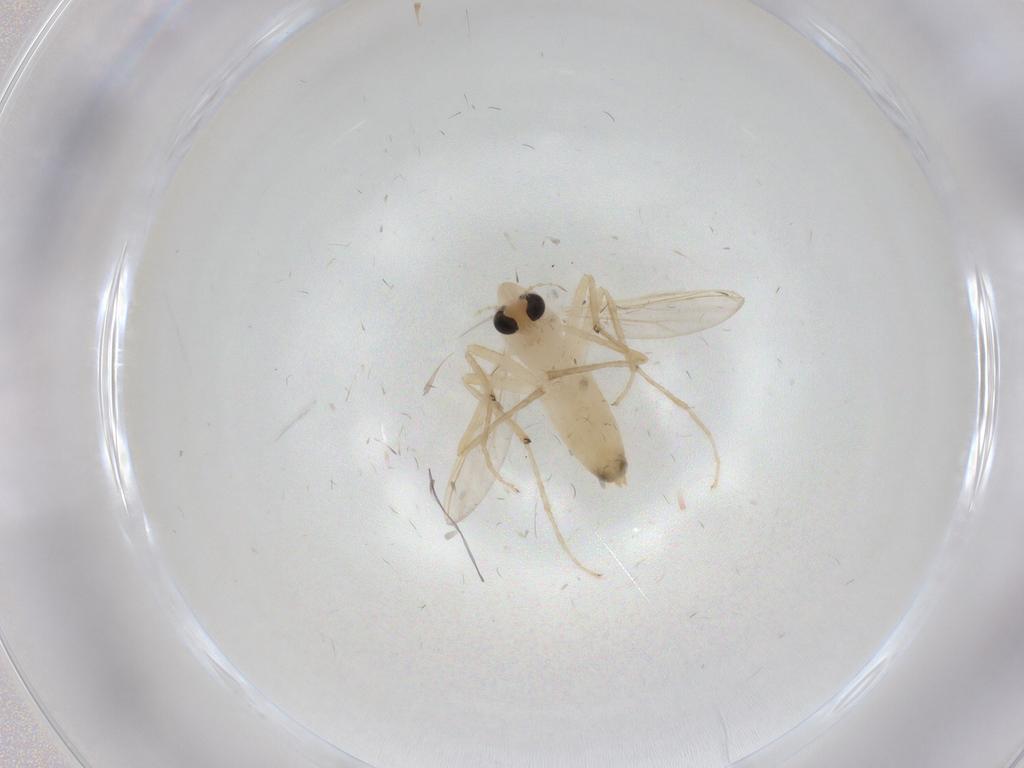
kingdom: Animalia
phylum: Arthropoda
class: Insecta
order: Diptera
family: Chironomidae
